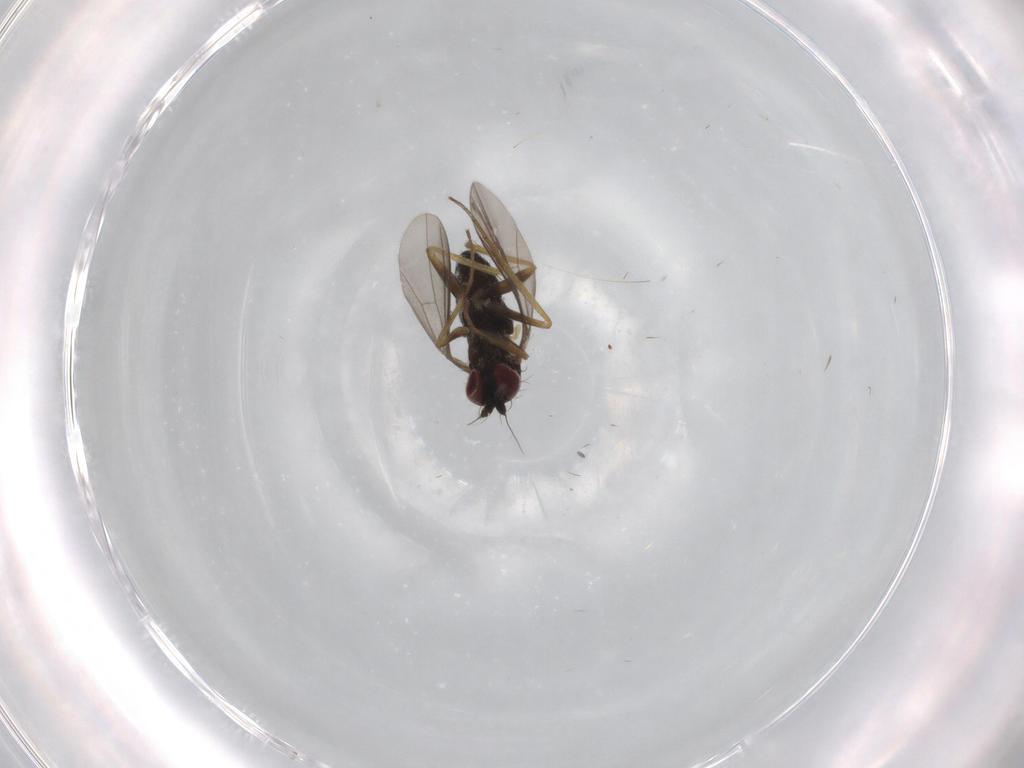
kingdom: Animalia
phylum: Arthropoda
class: Insecta
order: Diptera
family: Dolichopodidae
